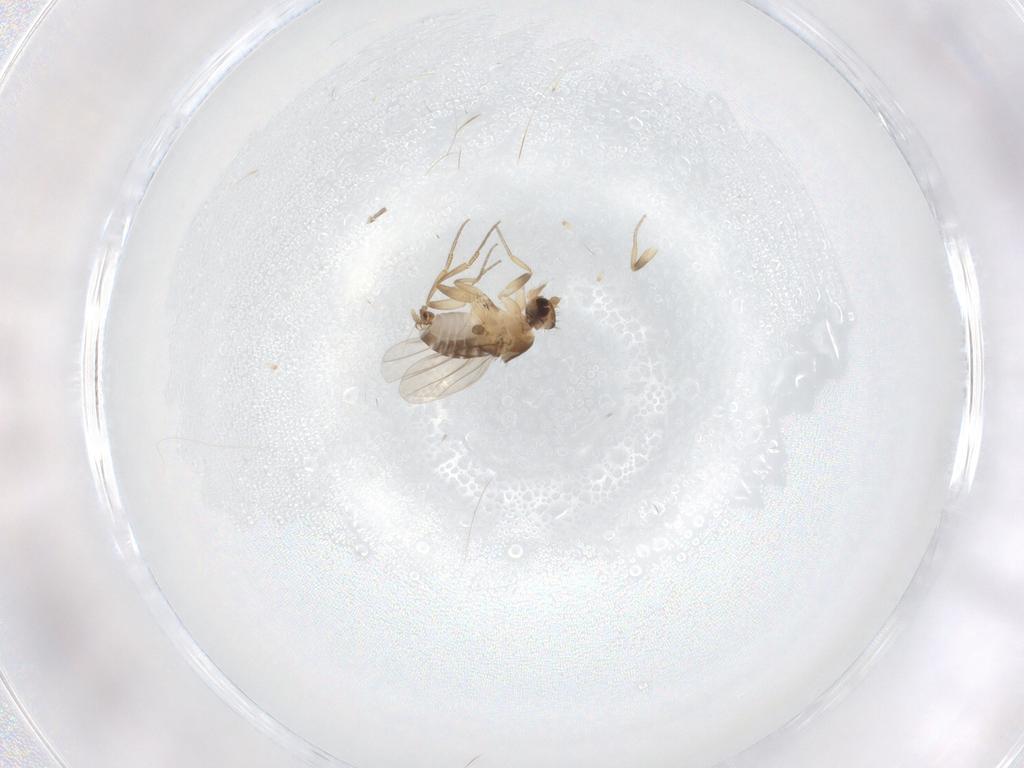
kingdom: Animalia
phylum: Arthropoda
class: Insecta
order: Diptera
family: Phoridae
